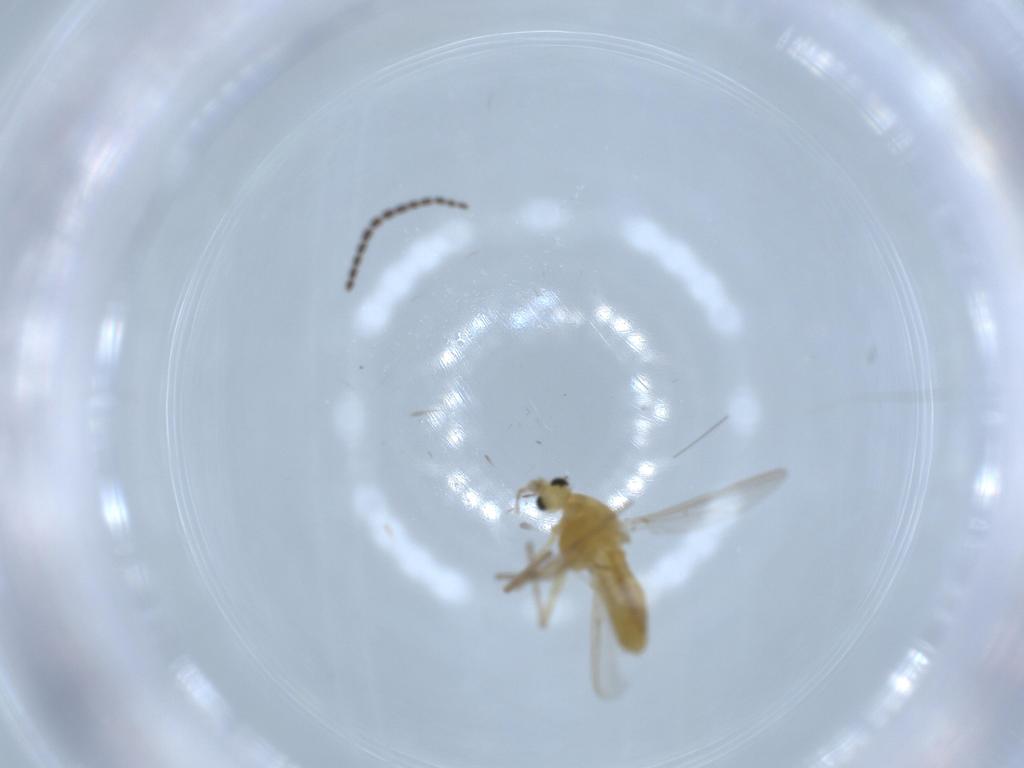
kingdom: Animalia
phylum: Arthropoda
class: Insecta
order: Diptera
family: Chironomidae
